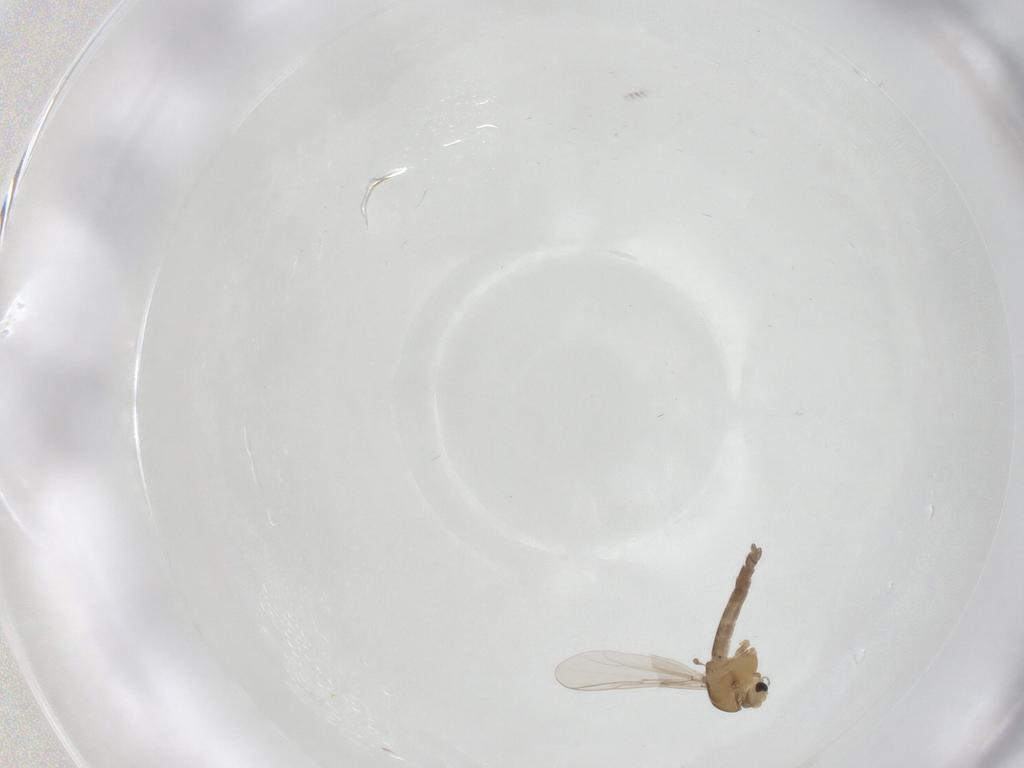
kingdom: Animalia
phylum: Arthropoda
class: Insecta
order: Diptera
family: Chironomidae
